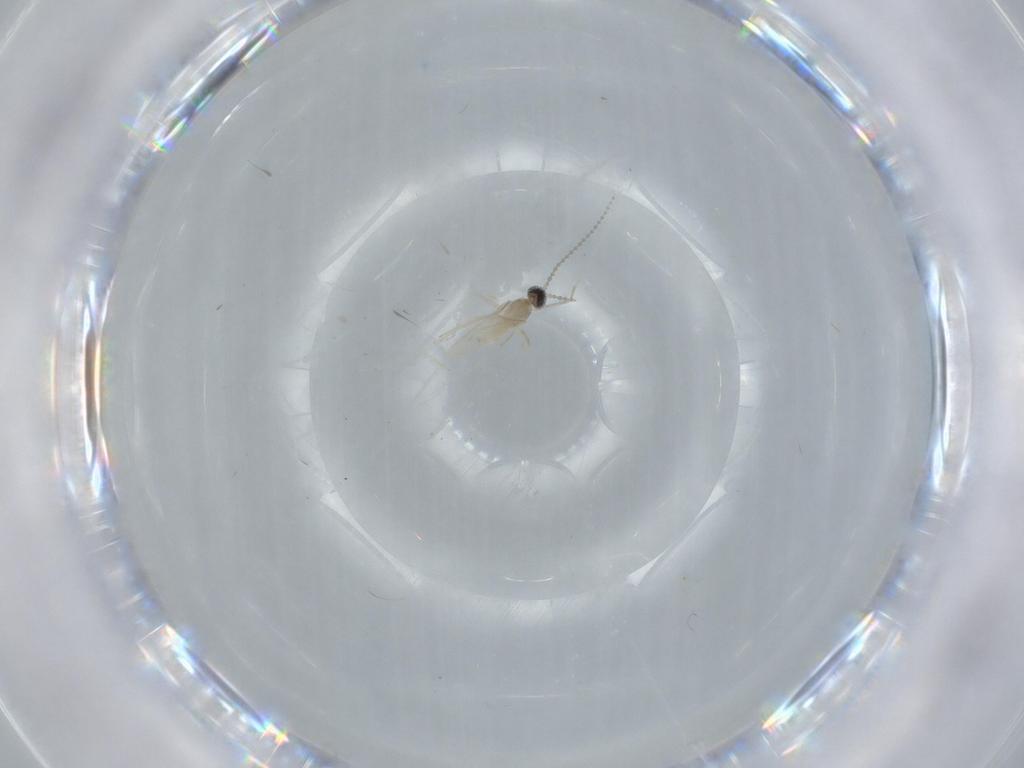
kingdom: Animalia
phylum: Arthropoda
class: Insecta
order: Diptera
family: Cecidomyiidae
